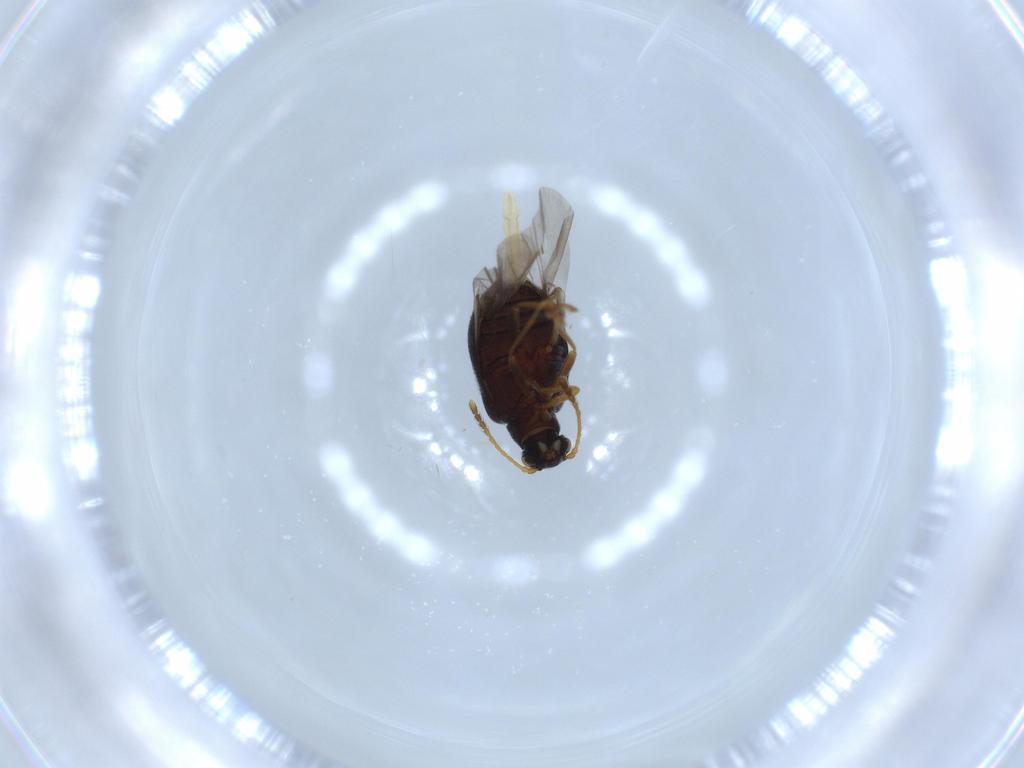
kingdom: Animalia
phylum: Arthropoda
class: Insecta
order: Coleoptera
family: Aderidae
